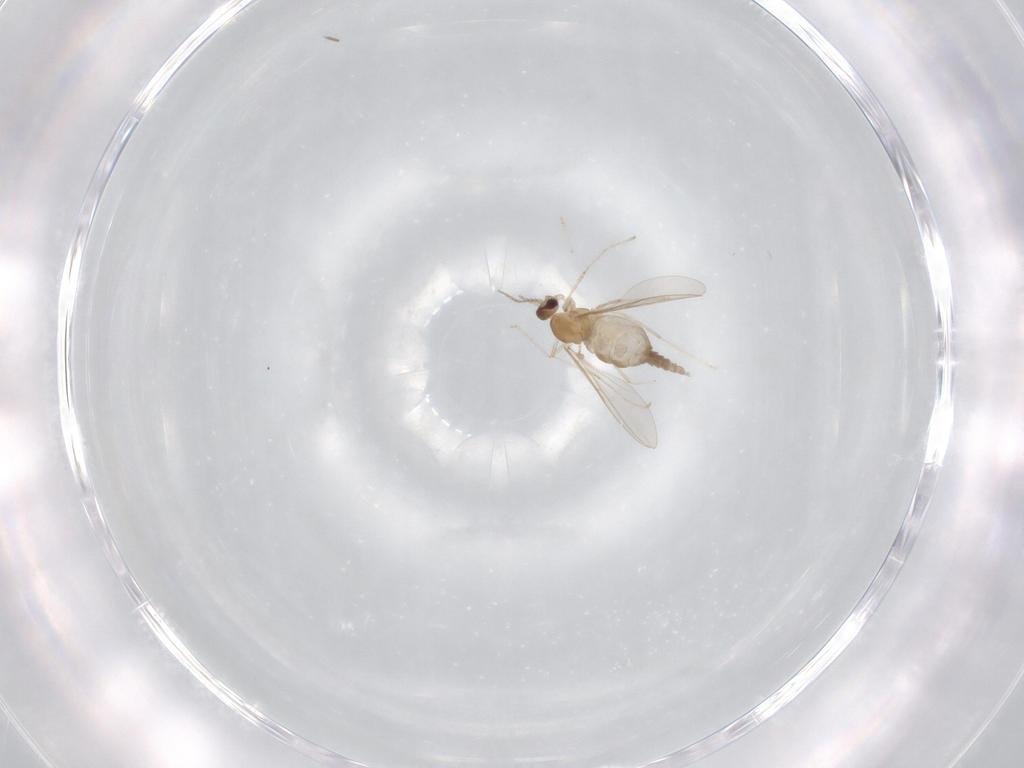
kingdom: Animalia
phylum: Arthropoda
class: Insecta
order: Diptera
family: Cecidomyiidae
